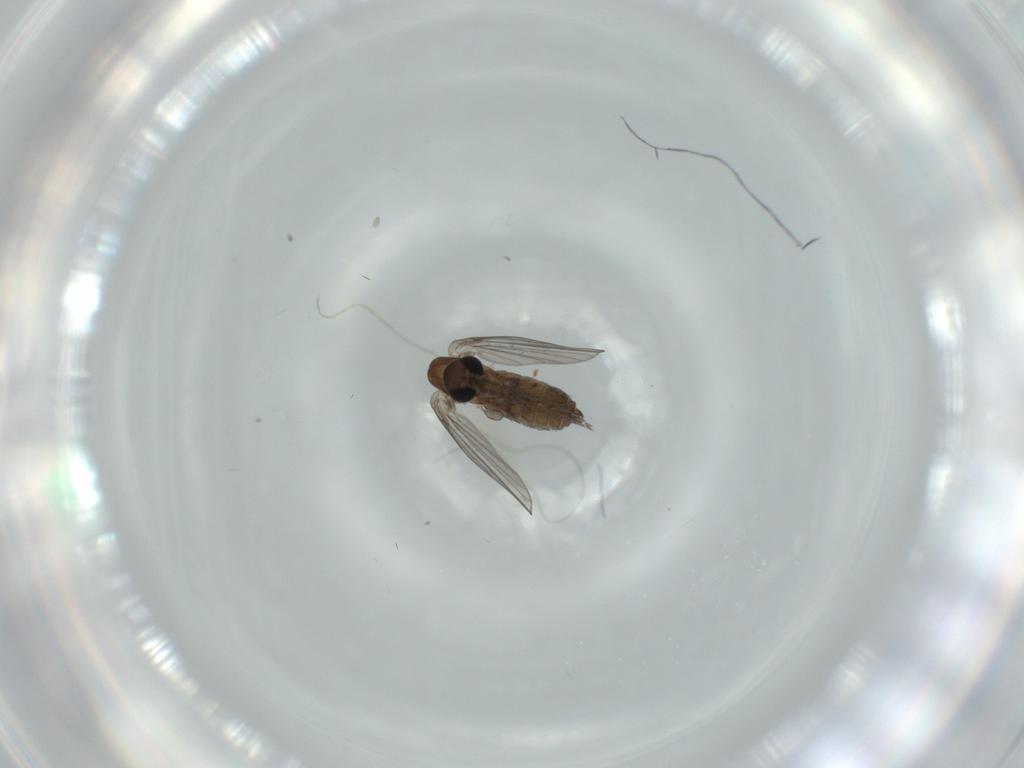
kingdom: Animalia
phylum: Arthropoda
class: Insecta
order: Diptera
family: Psychodidae
